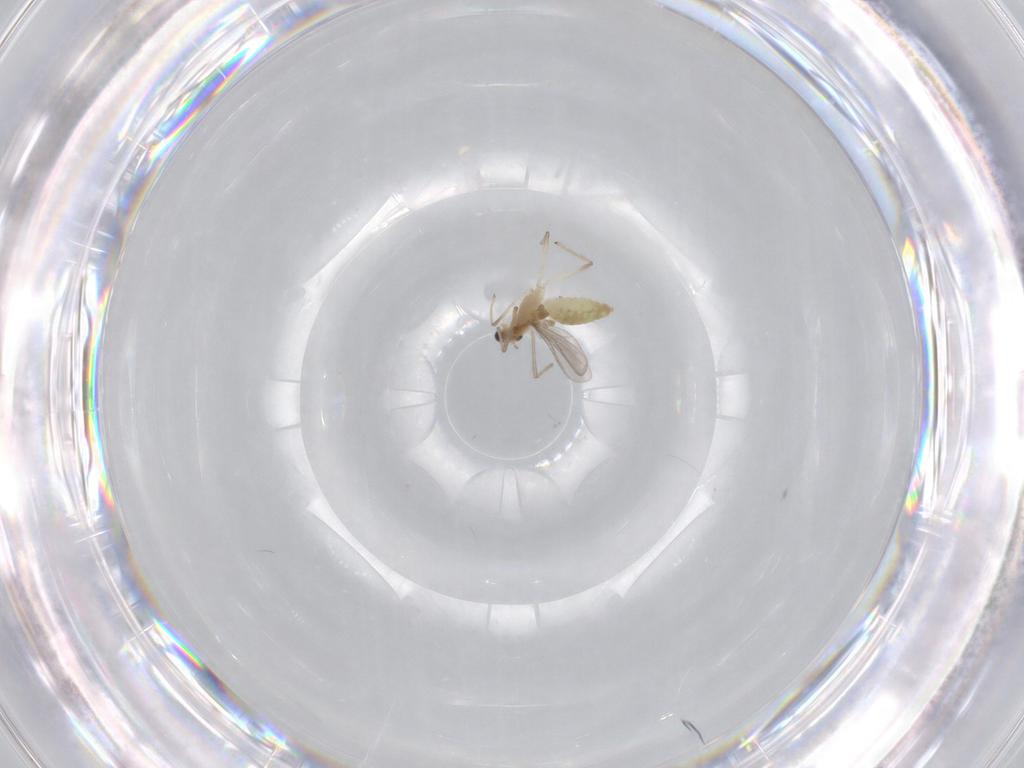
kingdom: Animalia
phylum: Arthropoda
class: Insecta
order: Diptera
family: Chironomidae
